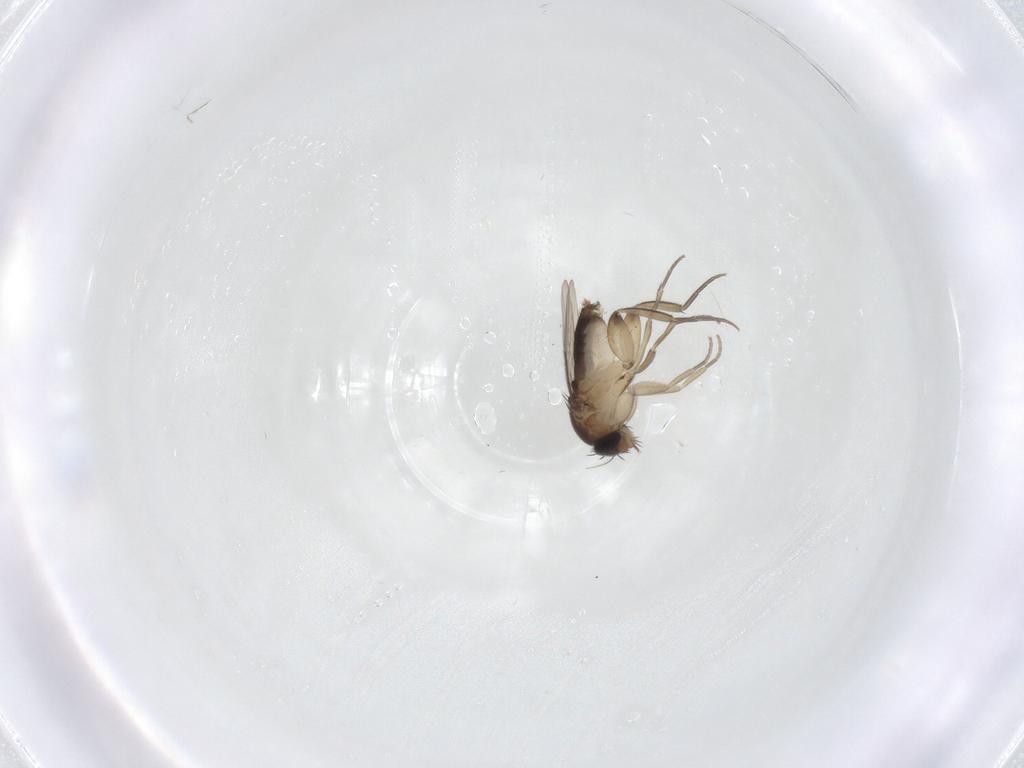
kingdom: Animalia
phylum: Arthropoda
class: Insecta
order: Diptera
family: Phoridae
